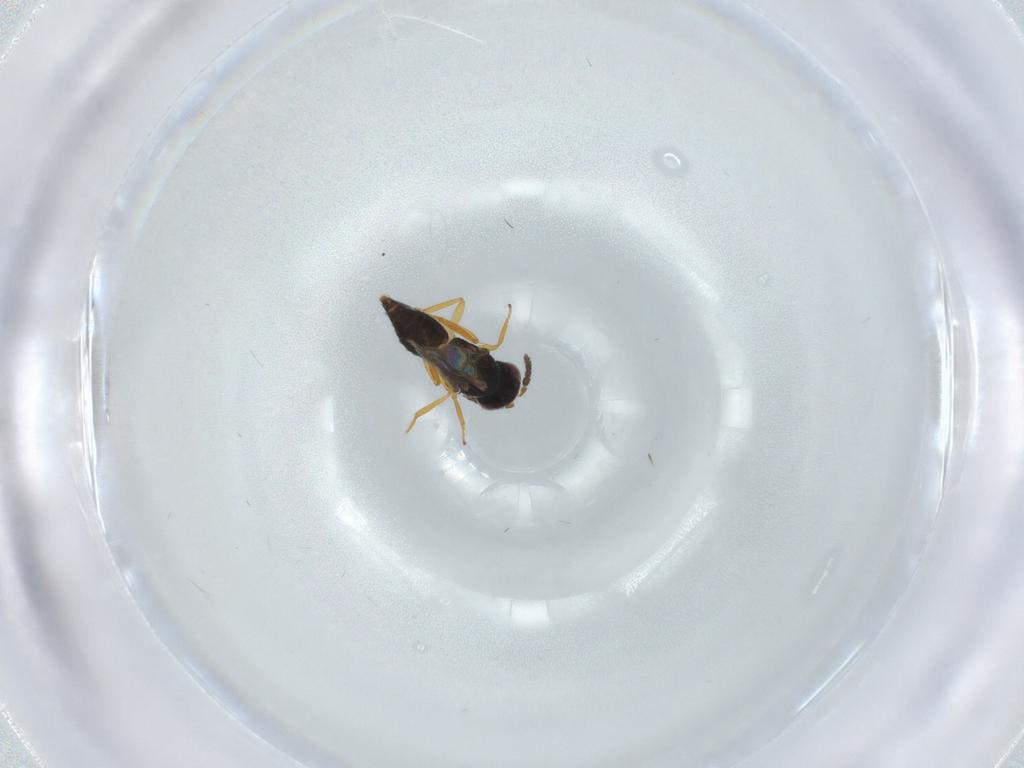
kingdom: Animalia
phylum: Arthropoda
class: Insecta
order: Hymenoptera
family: Eulophidae
